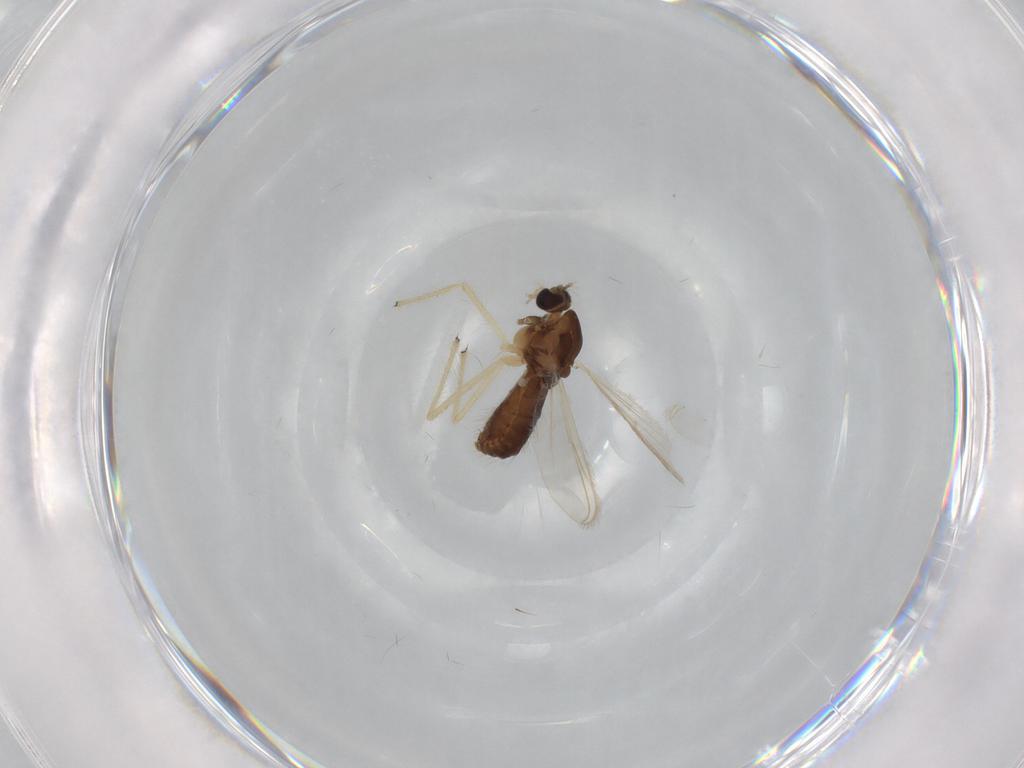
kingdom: Animalia
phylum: Arthropoda
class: Insecta
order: Diptera
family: Chironomidae
